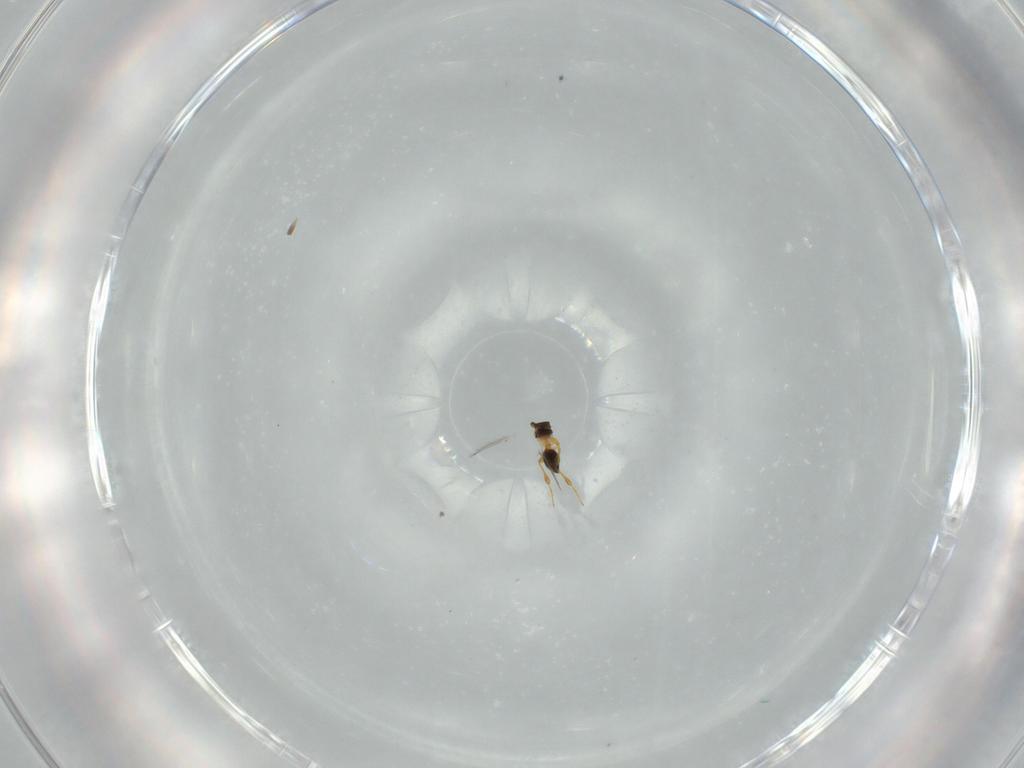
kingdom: Animalia
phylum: Arthropoda
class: Insecta
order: Hymenoptera
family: Platygastridae
